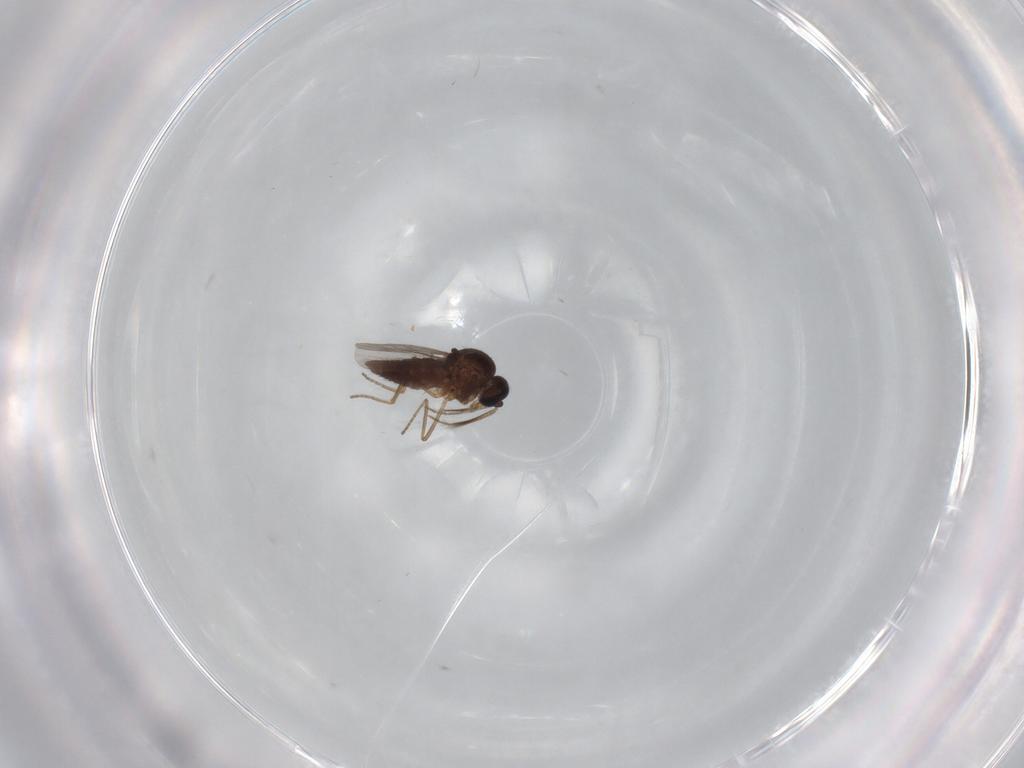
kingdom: Animalia
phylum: Arthropoda
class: Insecta
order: Diptera
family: Ceratopogonidae
